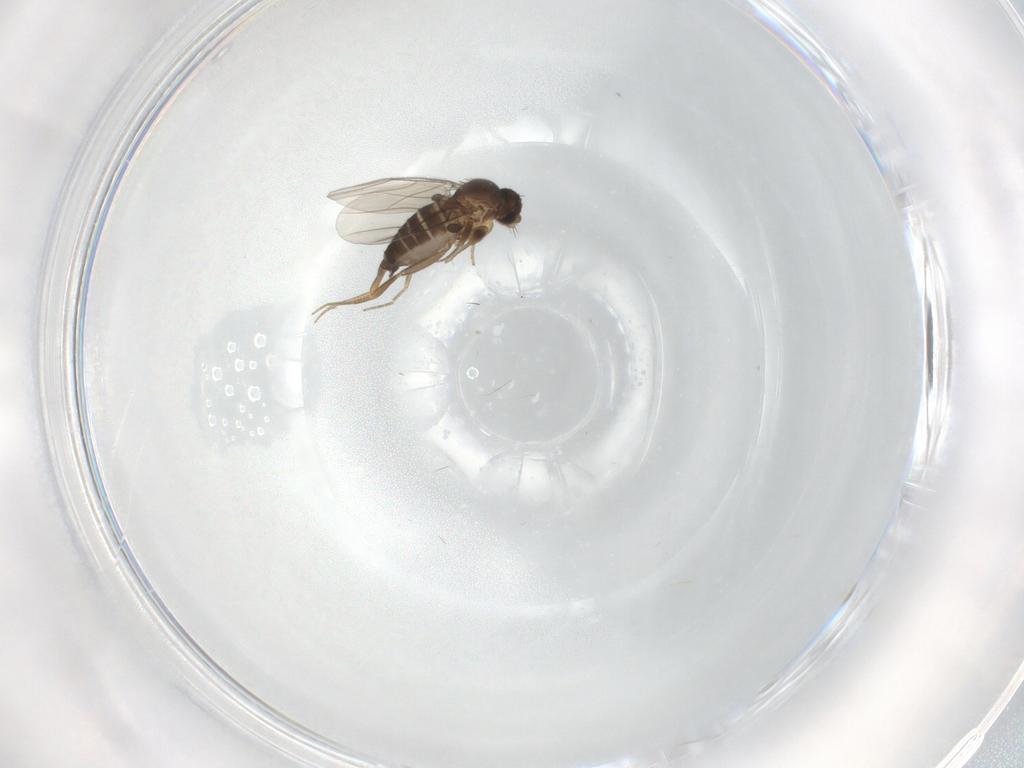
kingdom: Animalia
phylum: Arthropoda
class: Insecta
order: Diptera
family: Phoridae
